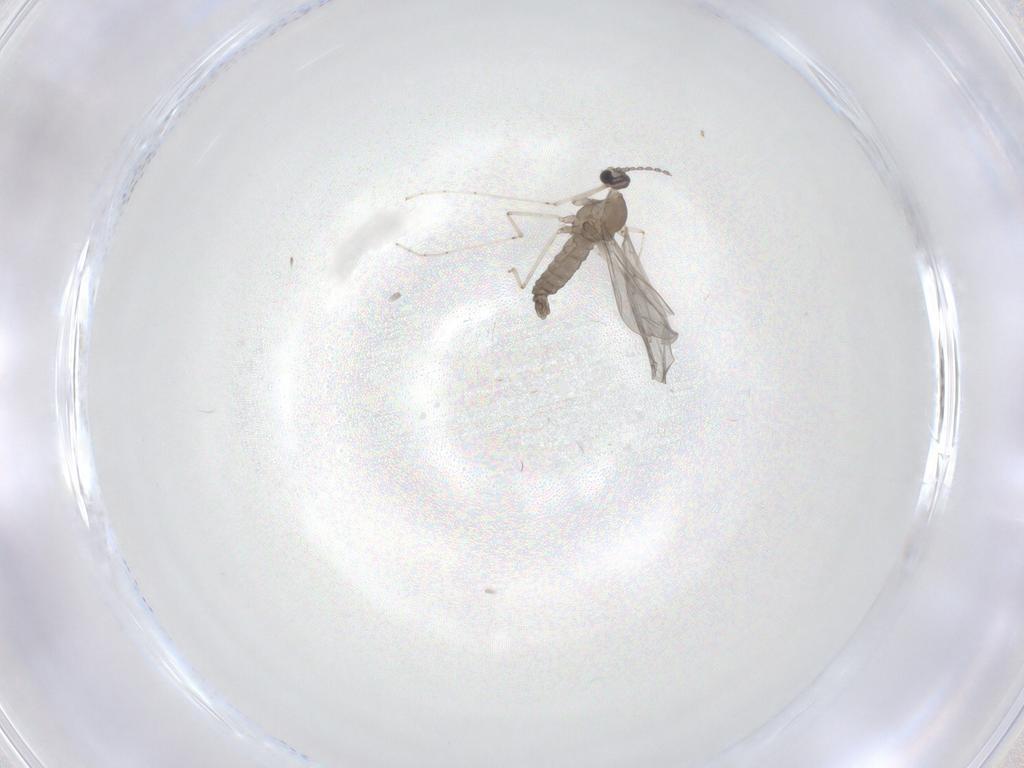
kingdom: Animalia
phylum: Arthropoda
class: Insecta
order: Diptera
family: Cecidomyiidae
